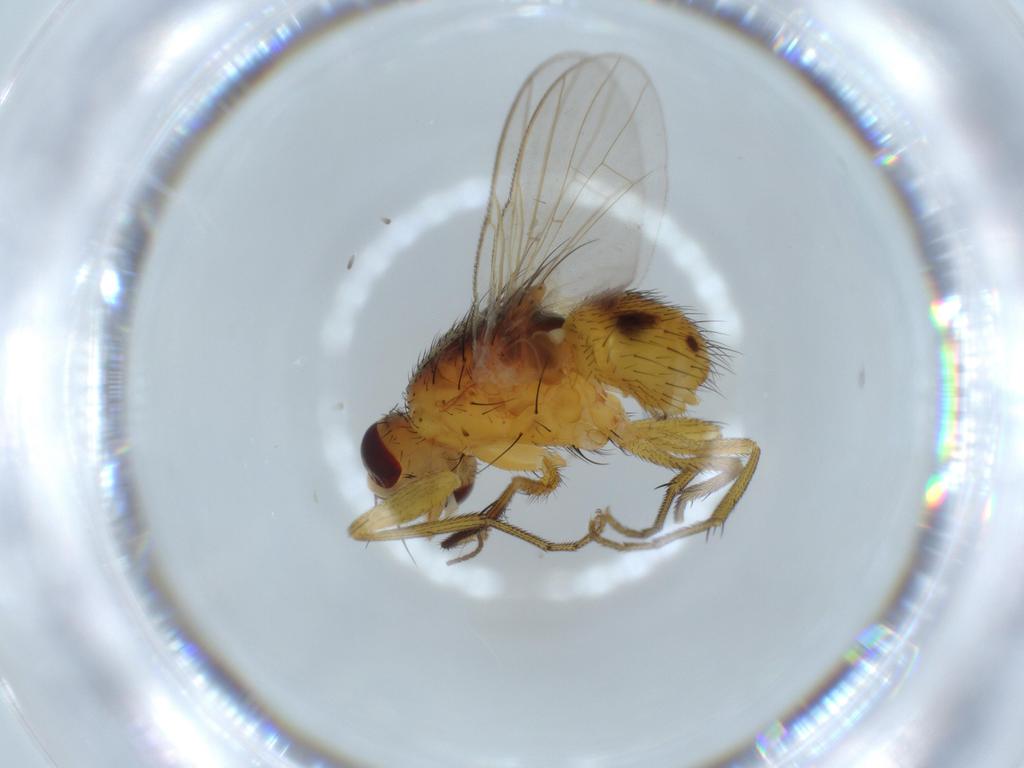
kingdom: Animalia
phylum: Arthropoda
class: Insecta
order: Diptera
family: Muscidae
